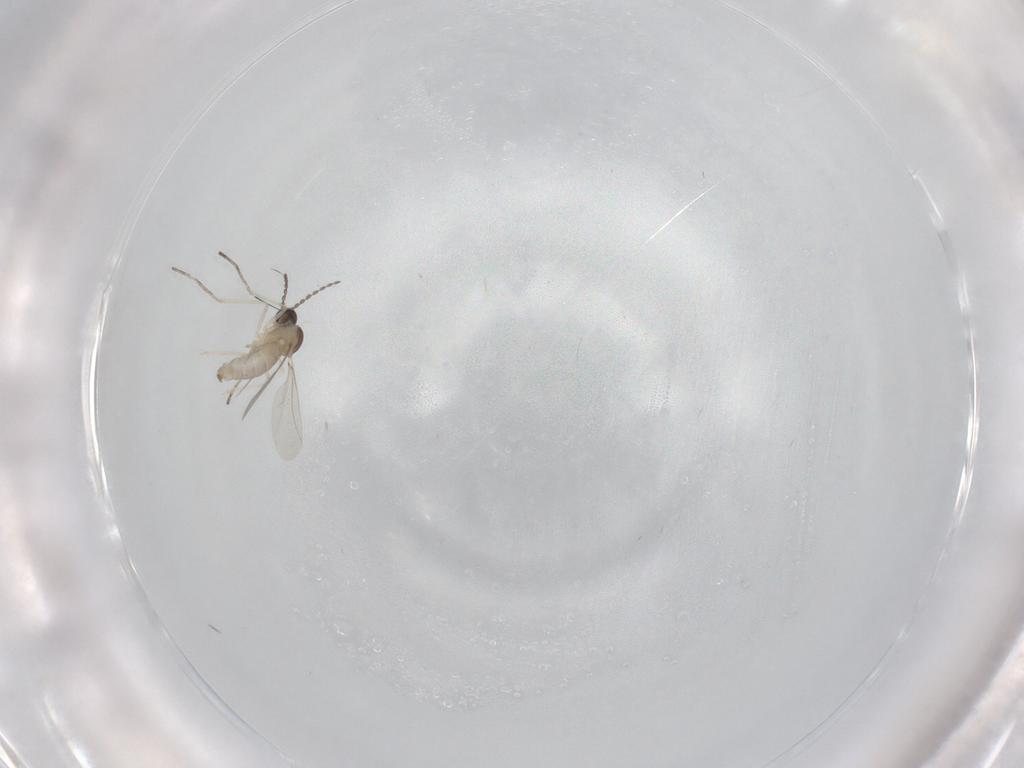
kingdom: Animalia
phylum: Arthropoda
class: Insecta
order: Diptera
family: Cecidomyiidae
